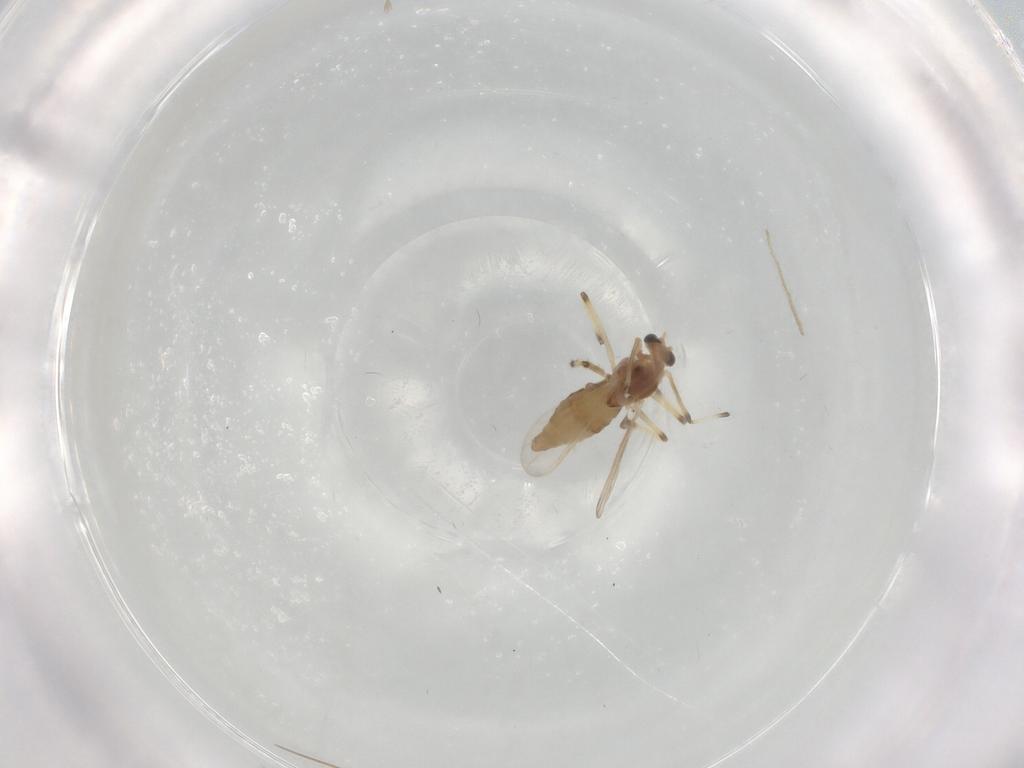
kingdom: Animalia
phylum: Arthropoda
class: Insecta
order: Diptera
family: Chironomidae
